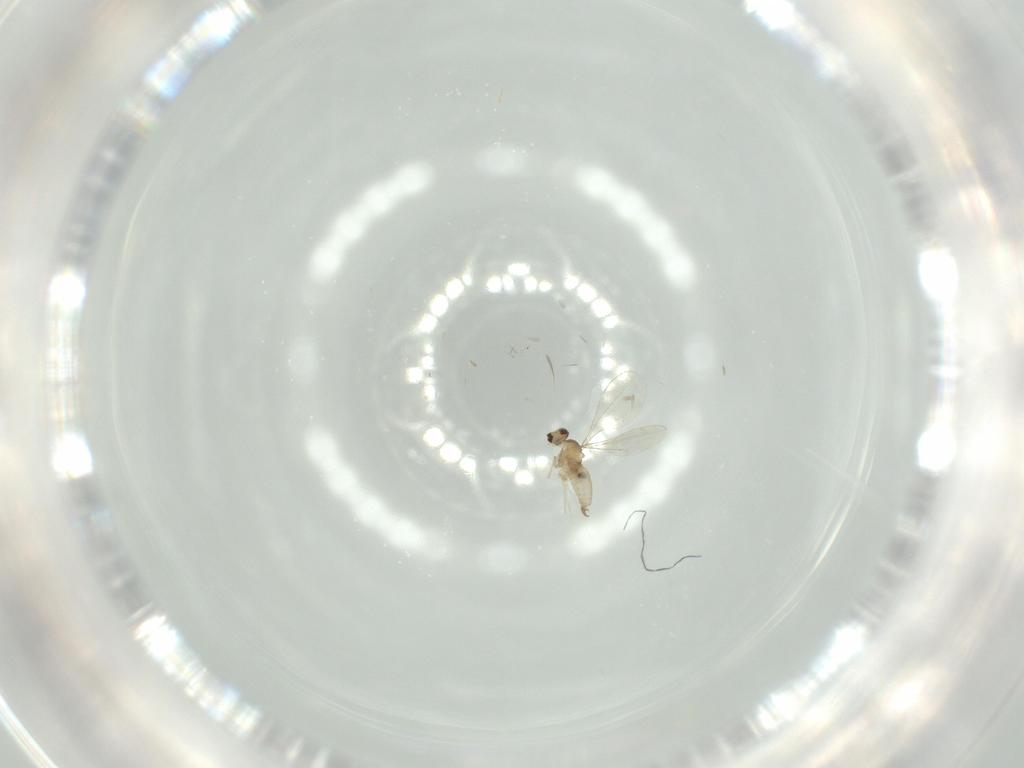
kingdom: Animalia
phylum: Arthropoda
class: Insecta
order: Diptera
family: Cecidomyiidae
